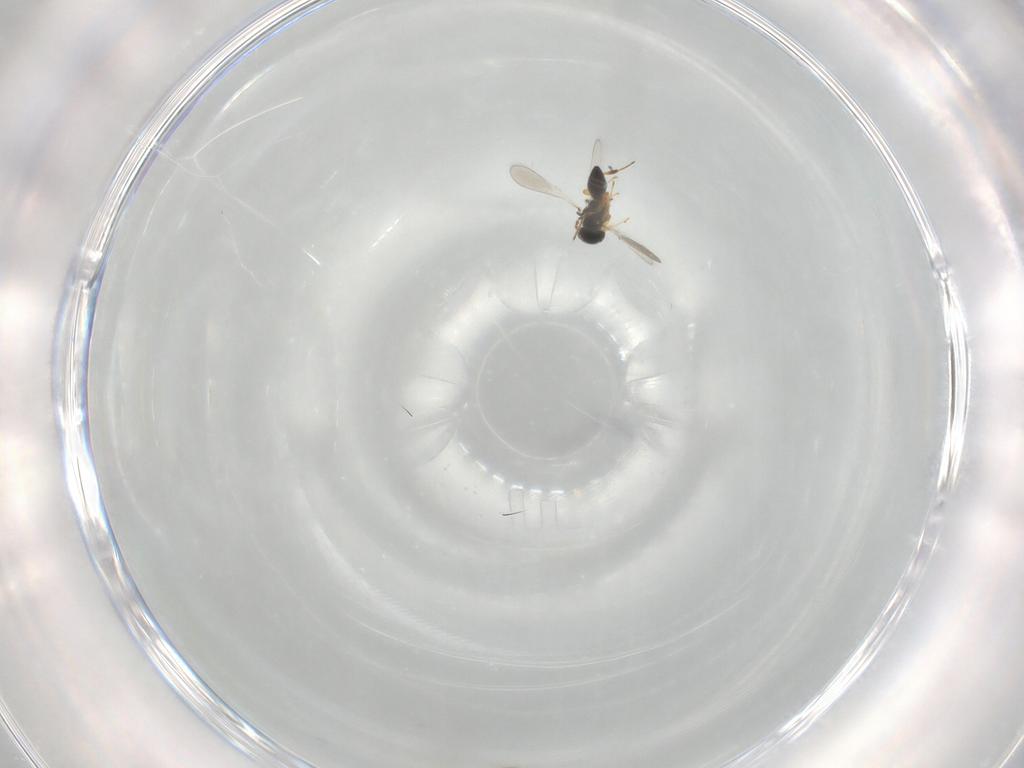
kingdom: Animalia
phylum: Arthropoda
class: Insecta
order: Hymenoptera
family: Platygastridae
